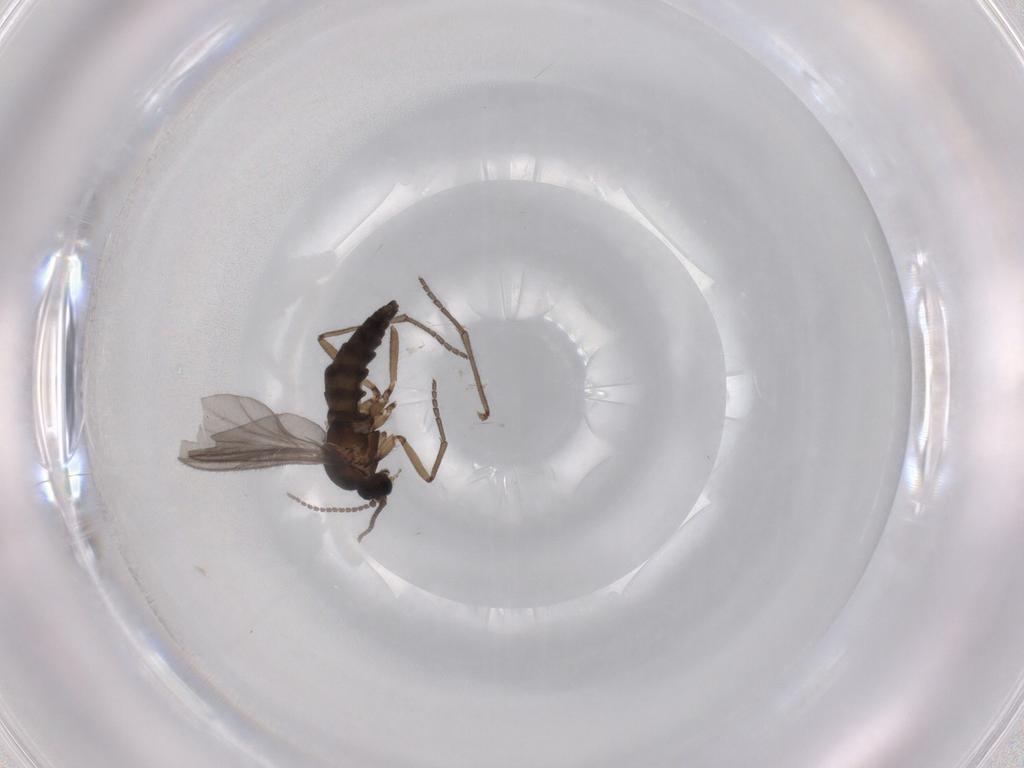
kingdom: Animalia
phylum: Arthropoda
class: Insecta
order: Diptera
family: Sciaridae
